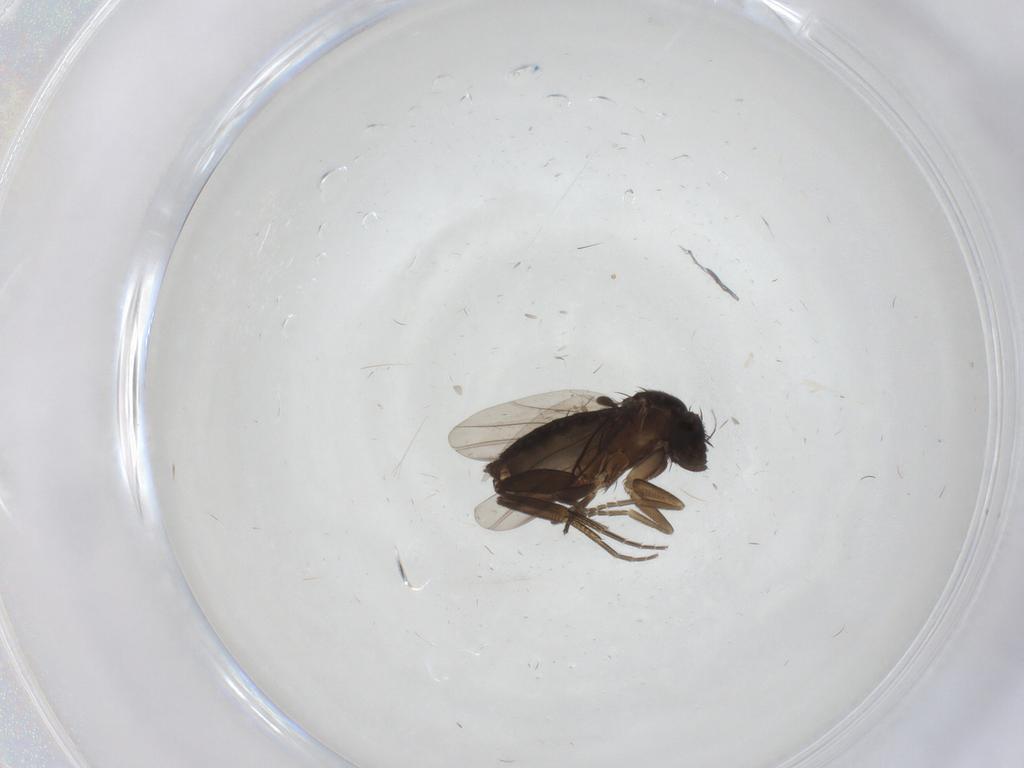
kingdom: Animalia
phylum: Arthropoda
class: Insecta
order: Diptera
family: Phoridae
